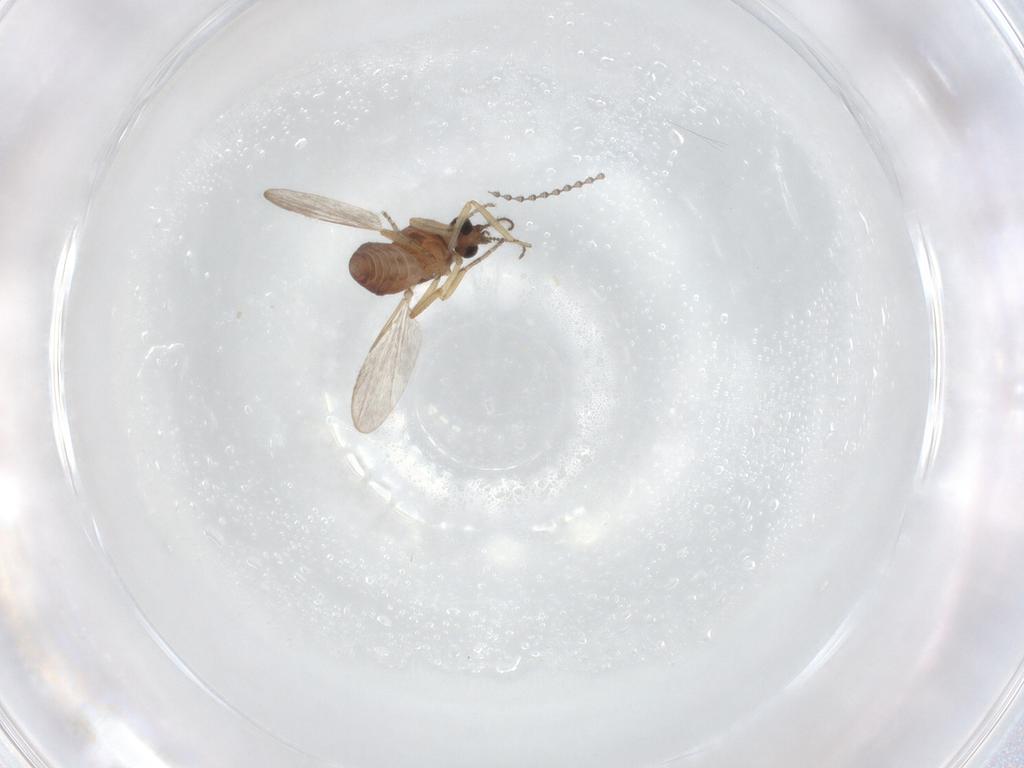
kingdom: Animalia
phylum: Arthropoda
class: Insecta
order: Diptera
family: Ceratopogonidae
